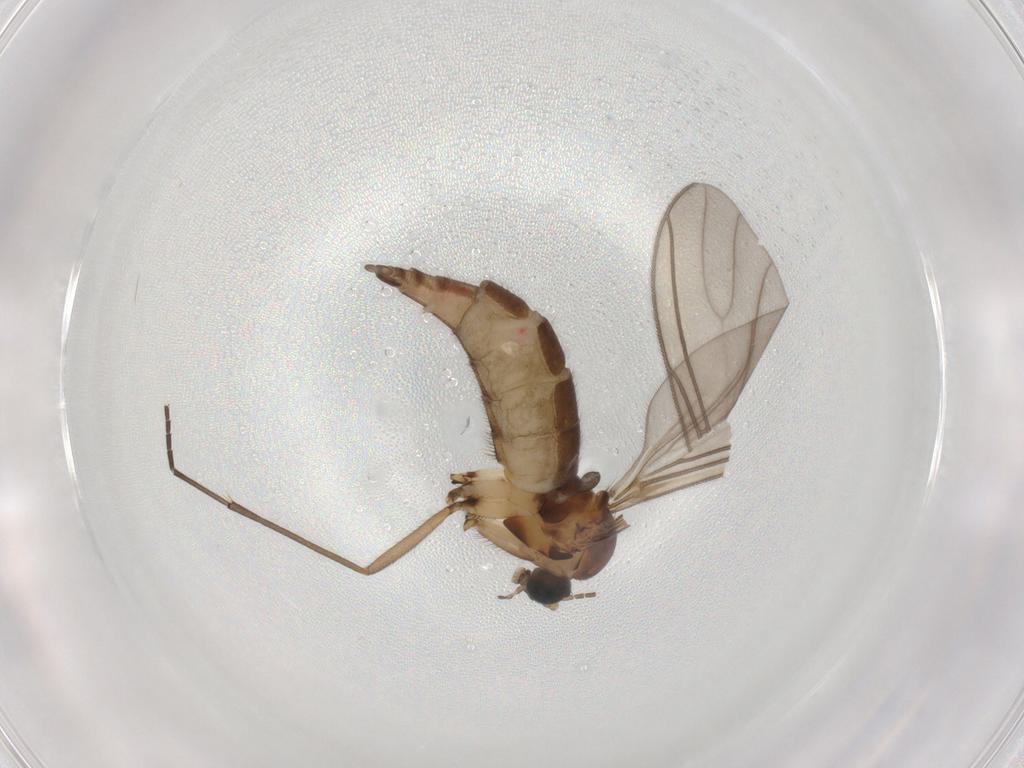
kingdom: Animalia
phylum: Arthropoda
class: Insecta
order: Diptera
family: Sciaridae
